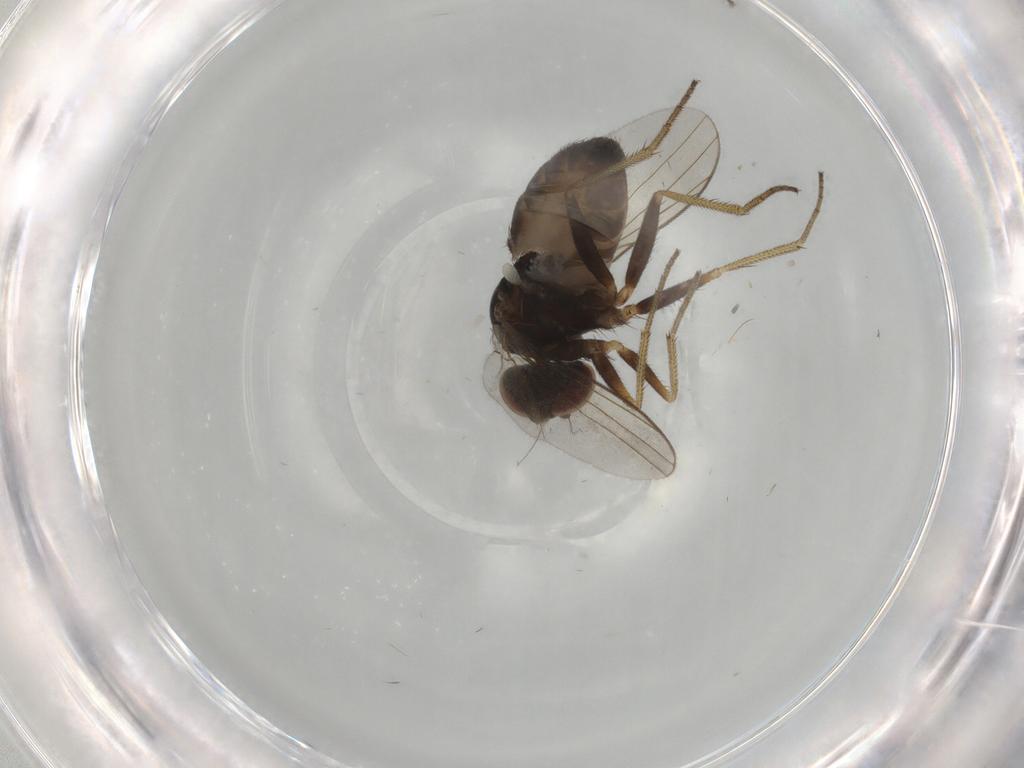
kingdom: Animalia
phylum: Arthropoda
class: Insecta
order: Diptera
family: Dolichopodidae
